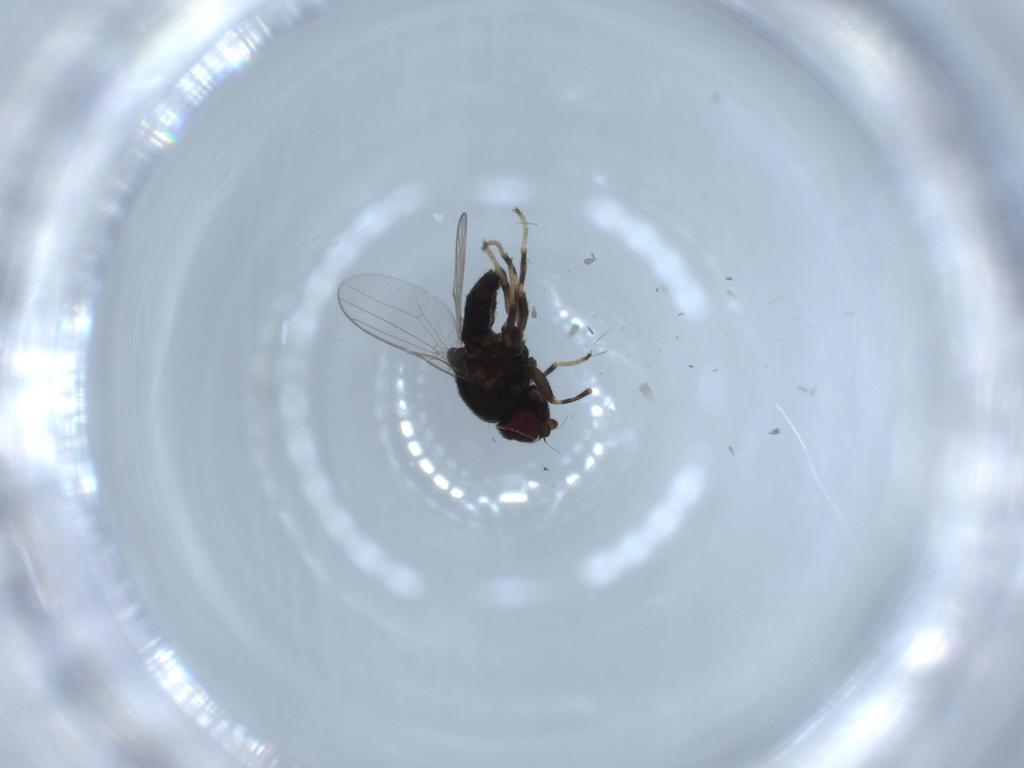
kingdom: Animalia
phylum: Arthropoda
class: Insecta
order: Diptera
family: Chloropidae
